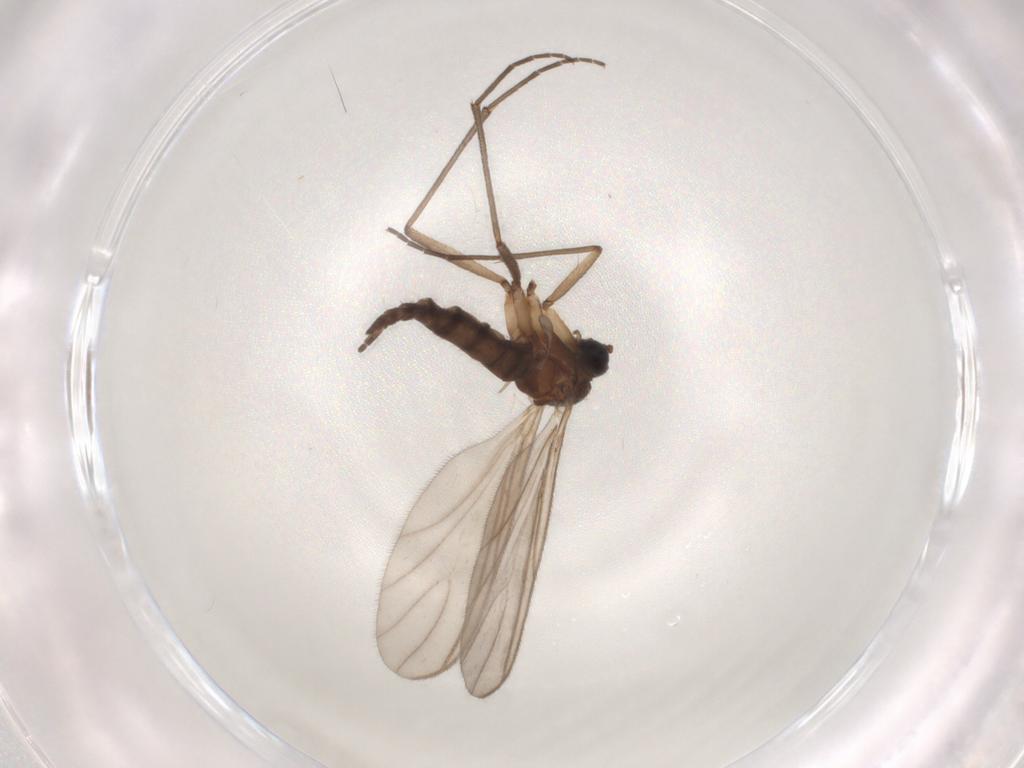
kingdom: Animalia
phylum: Arthropoda
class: Insecta
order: Diptera
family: Sciaridae
